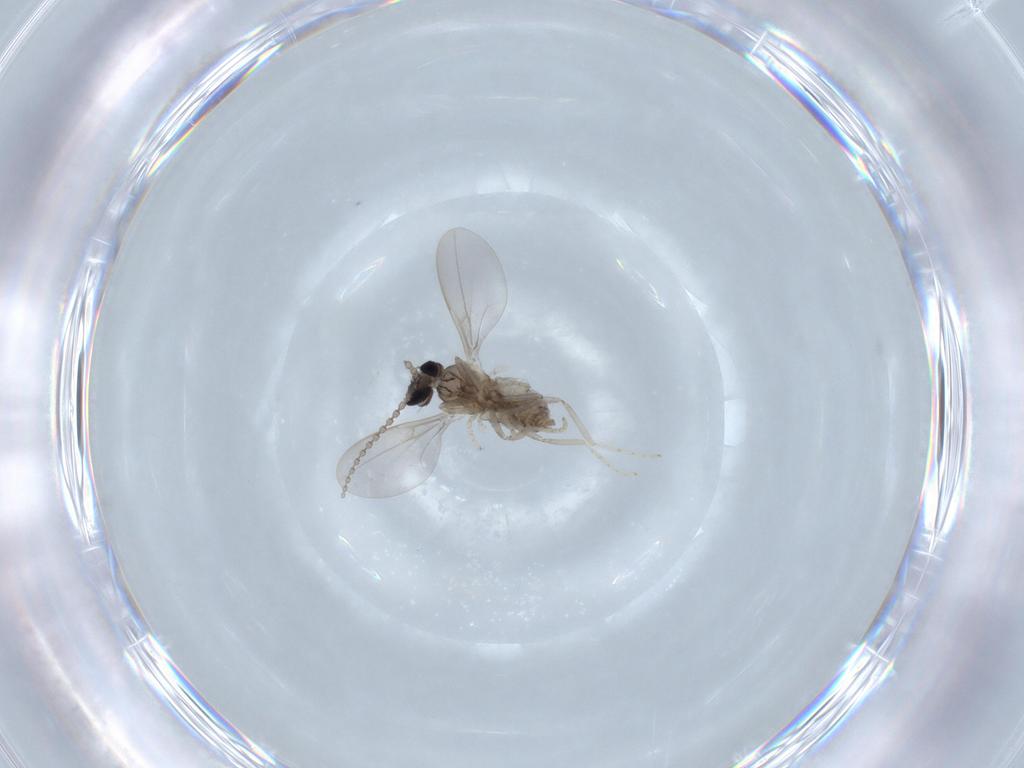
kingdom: Animalia
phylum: Arthropoda
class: Insecta
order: Diptera
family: Cecidomyiidae
